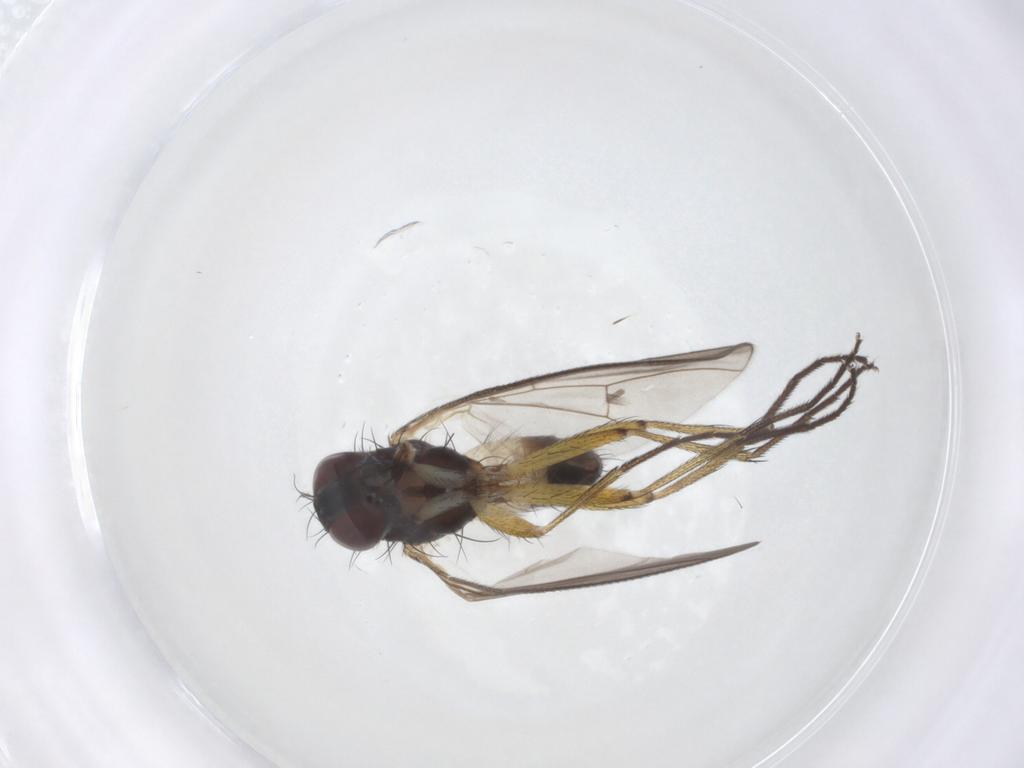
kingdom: Animalia
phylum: Arthropoda
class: Insecta
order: Diptera
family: Muscidae
